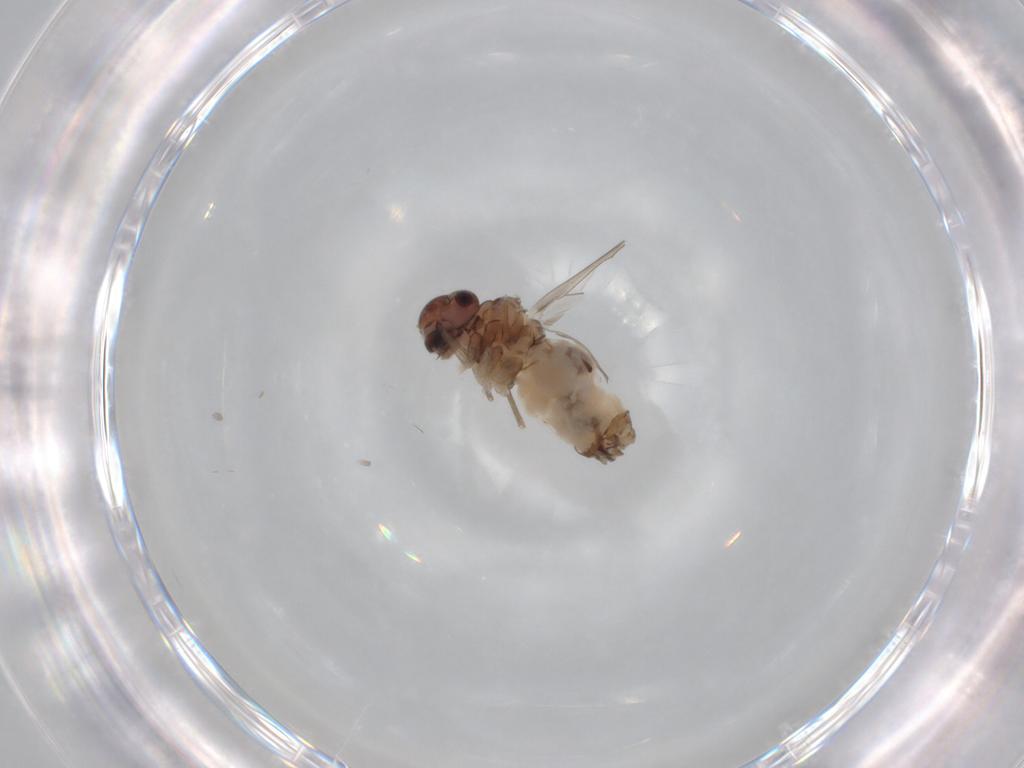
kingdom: Animalia
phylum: Arthropoda
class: Insecta
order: Psocodea
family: Peripsocidae
